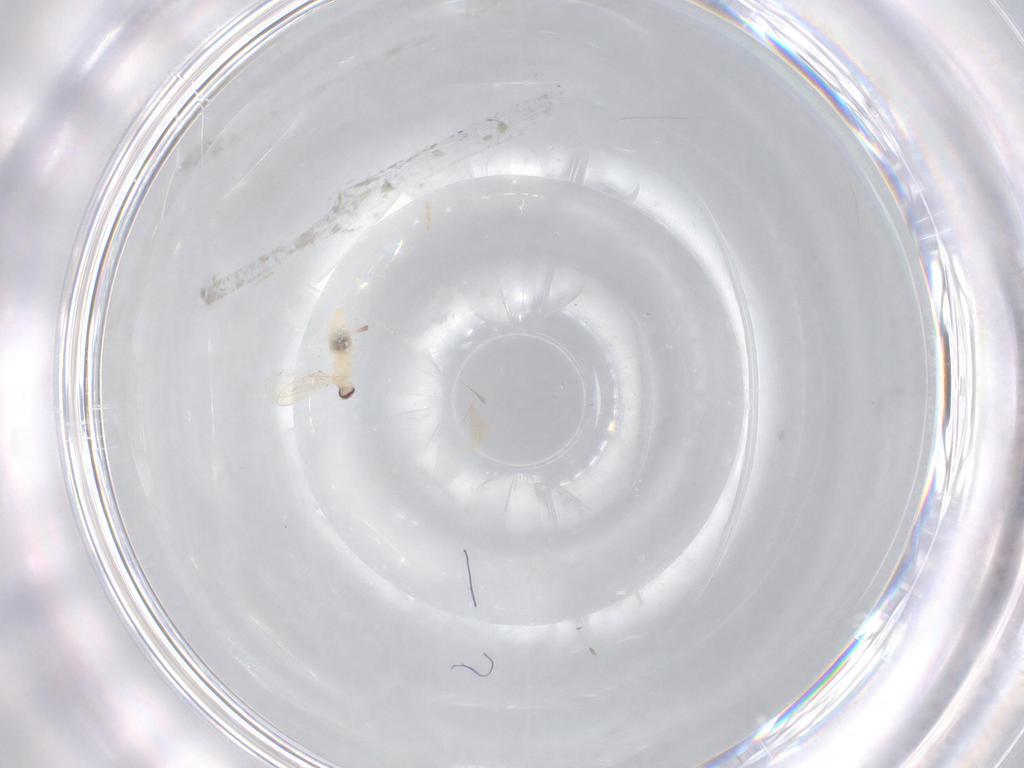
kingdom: Animalia
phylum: Arthropoda
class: Insecta
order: Diptera
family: Cecidomyiidae
